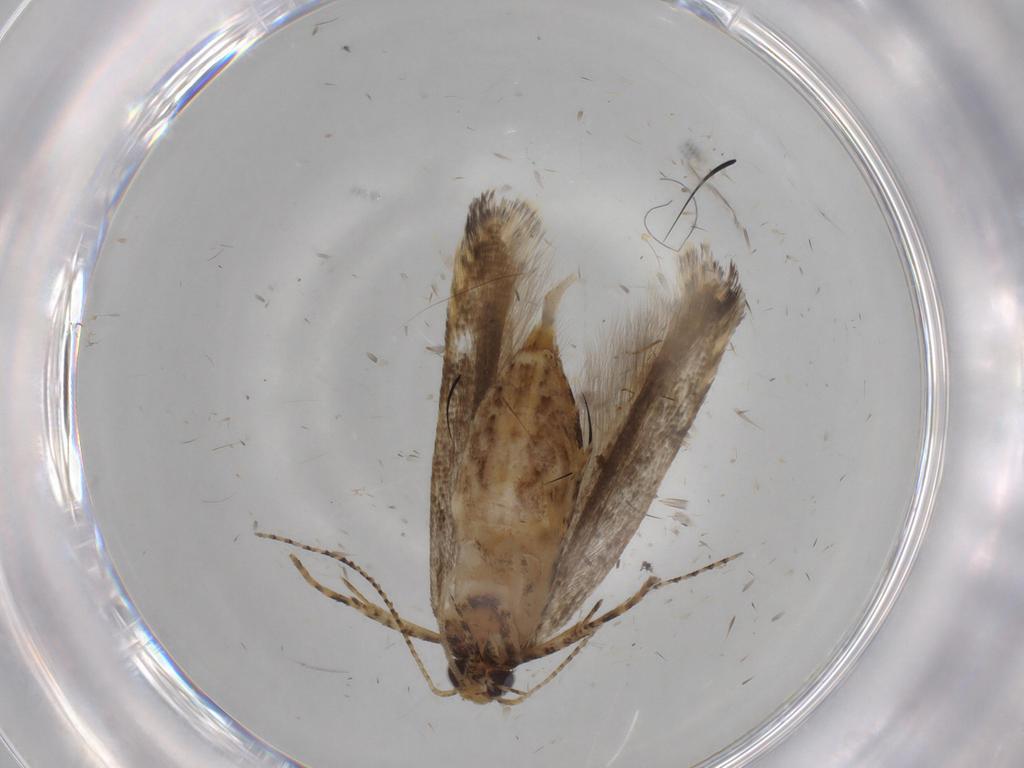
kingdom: Animalia
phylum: Arthropoda
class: Insecta
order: Lepidoptera
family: Gelechiidae
